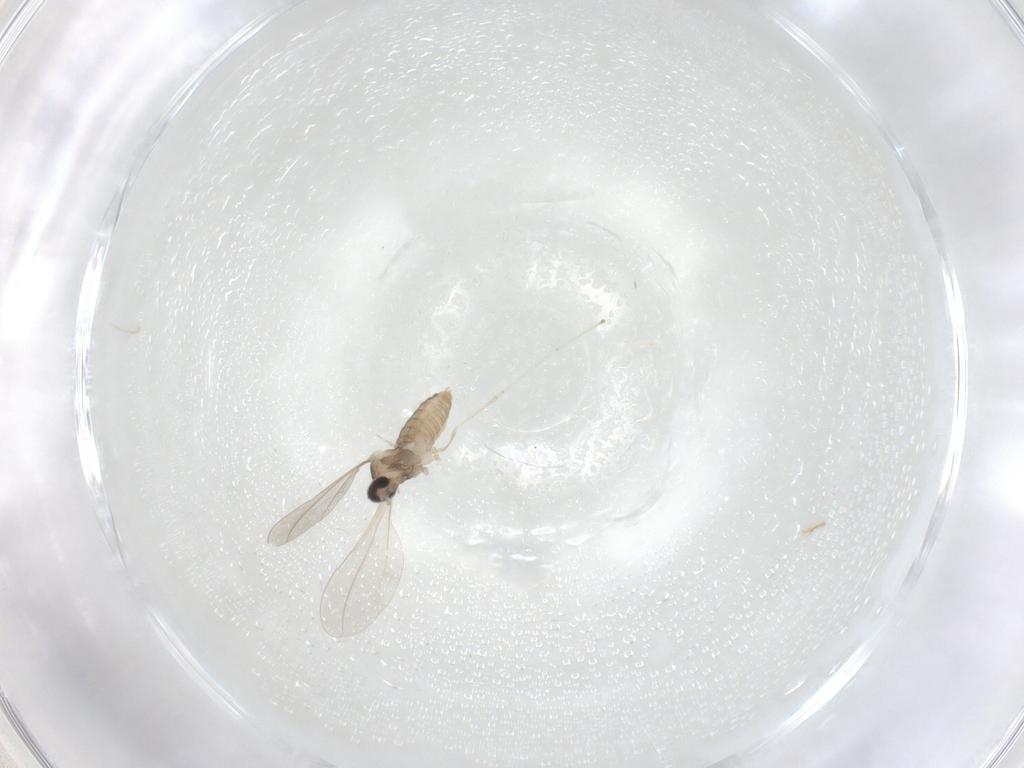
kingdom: Animalia
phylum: Arthropoda
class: Insecta
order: Diptera
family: Cecidomyiidae
